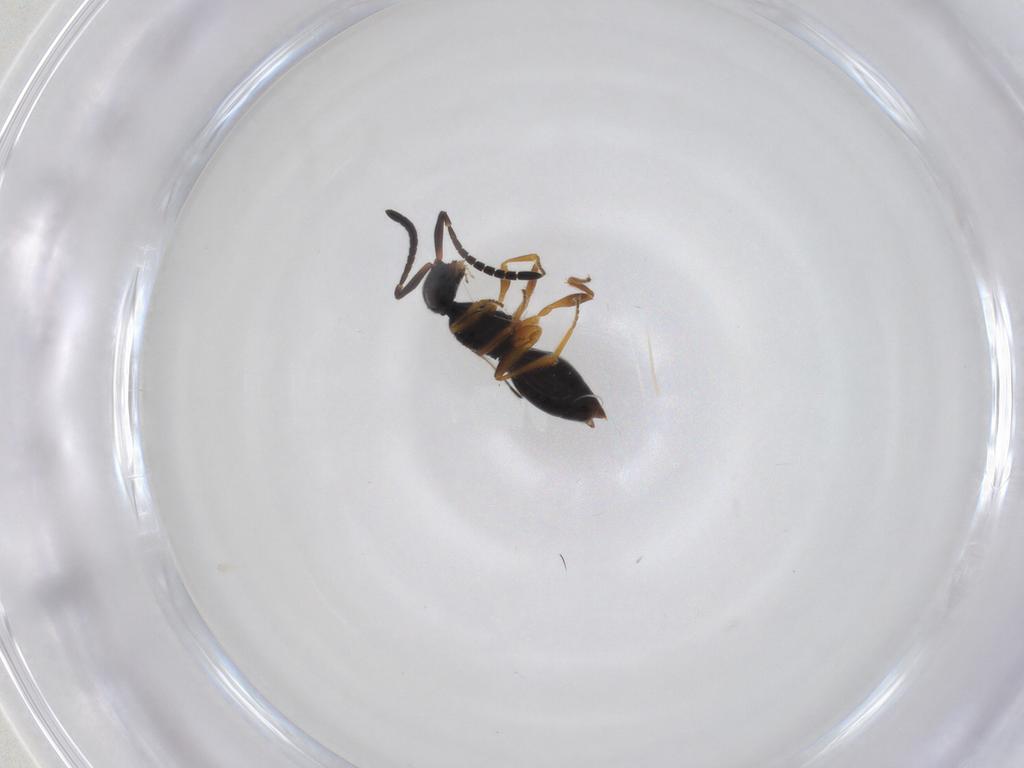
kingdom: Animalia
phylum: Arthropoda
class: Insecta
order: Hymenoptera
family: Megaspilidae
